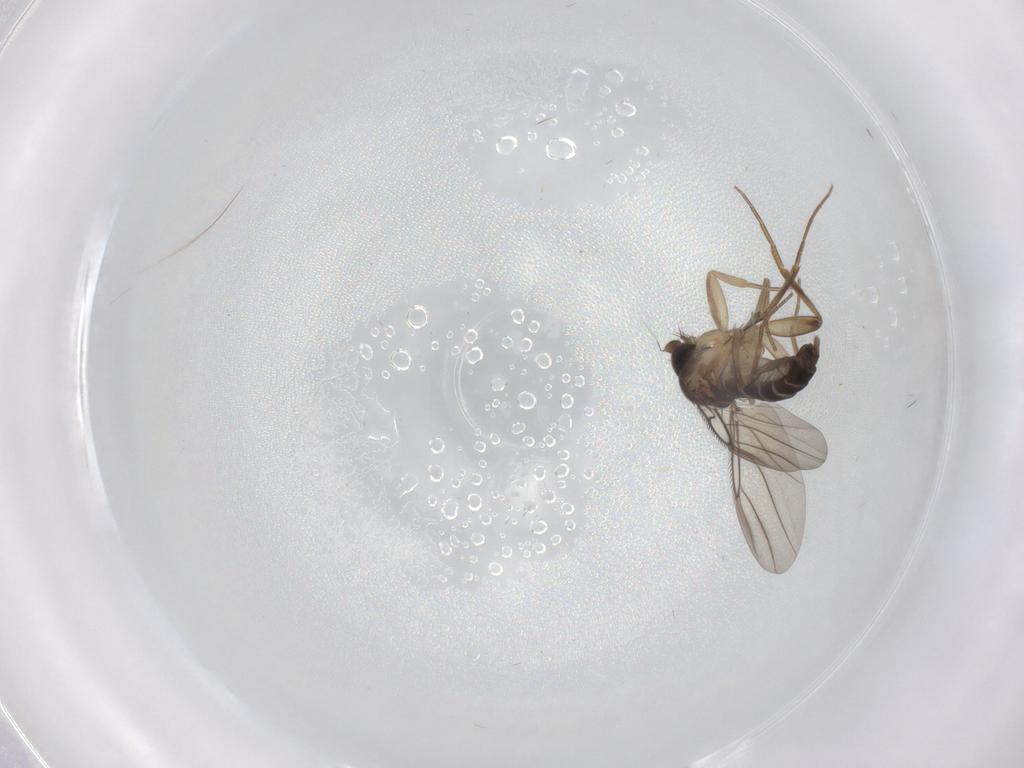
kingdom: Animalia
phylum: Arthropoda
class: Insecta
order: Diptera
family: Phoridae
